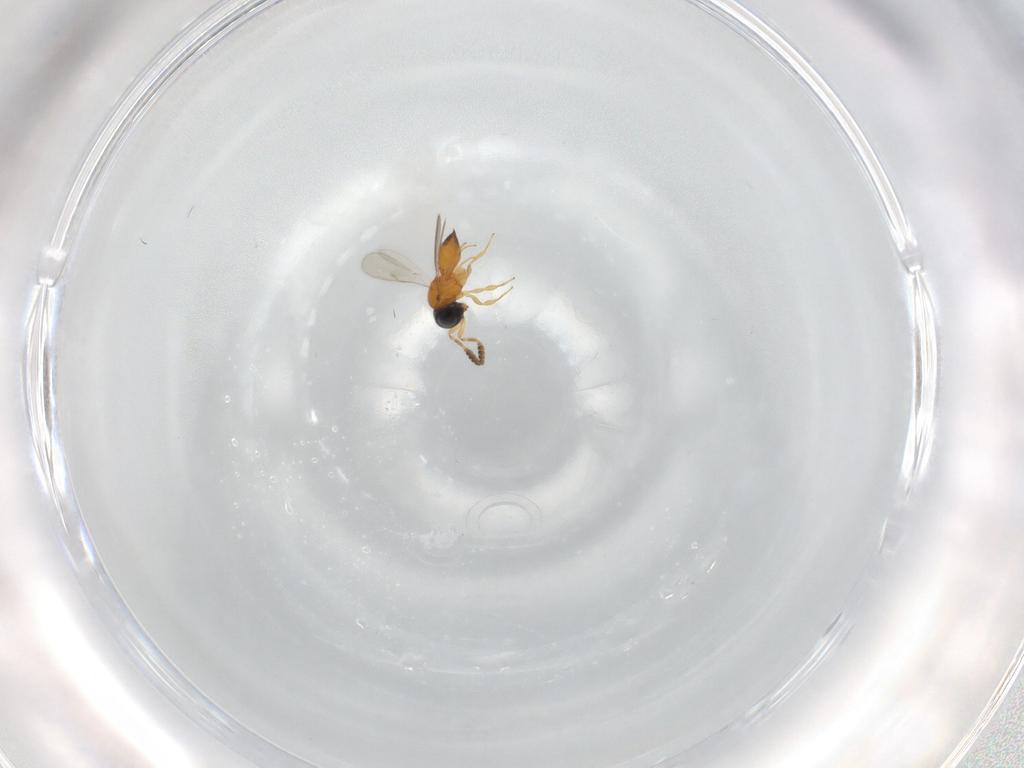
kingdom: Animalia
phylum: Arthropoda
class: Insecta
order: Hymenoptera
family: Scelionidae
